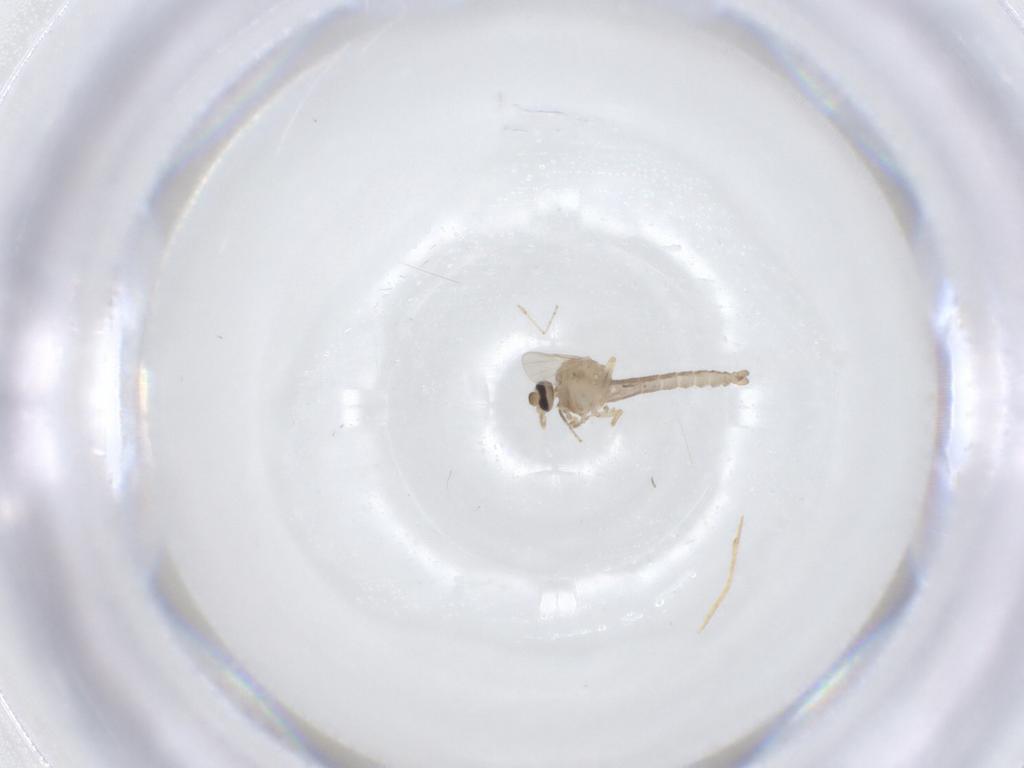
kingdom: Animalia
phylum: Arthropoda
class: Insecta
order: Diptera
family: Ceratopogonidae
